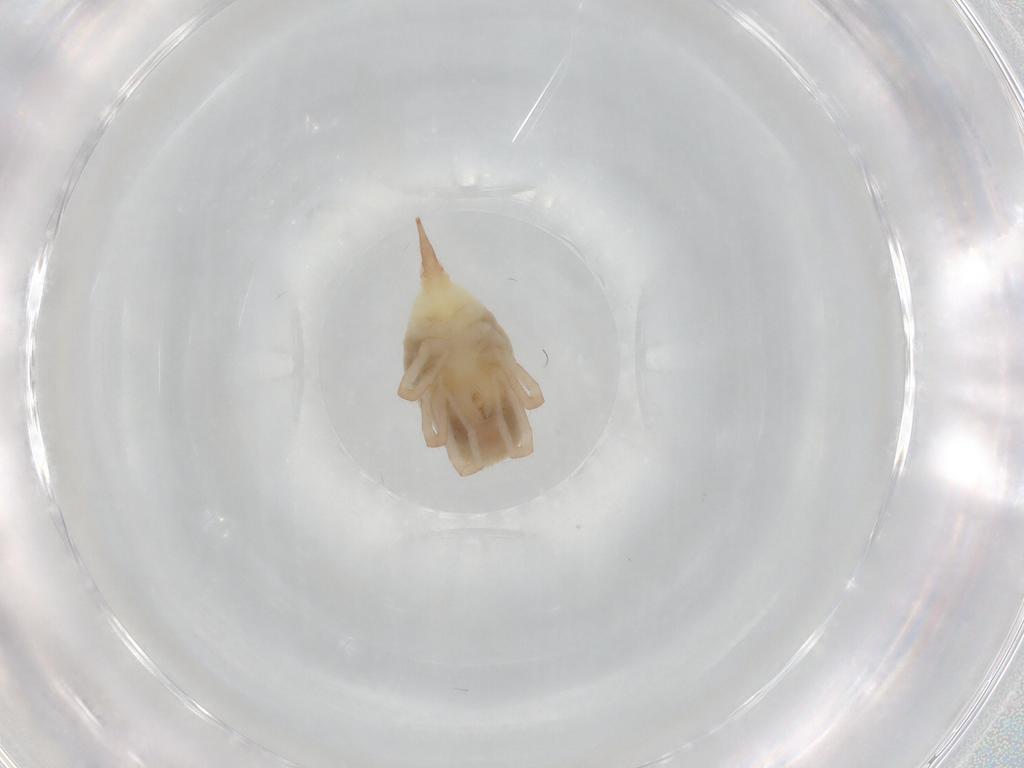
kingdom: Animalia
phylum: Arthropoda
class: Arachnida
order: Trombidiformes
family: Bdellidae
